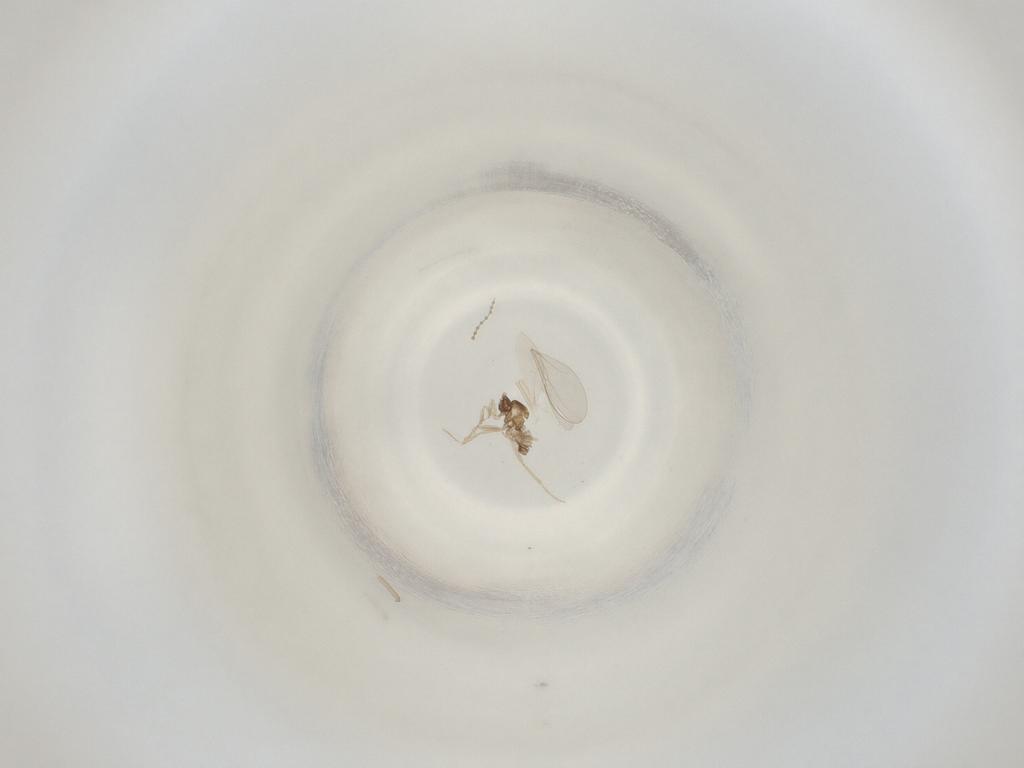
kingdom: Animalia
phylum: Arthropoda
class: Insecta
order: Diptera
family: Cecidomyiidae
